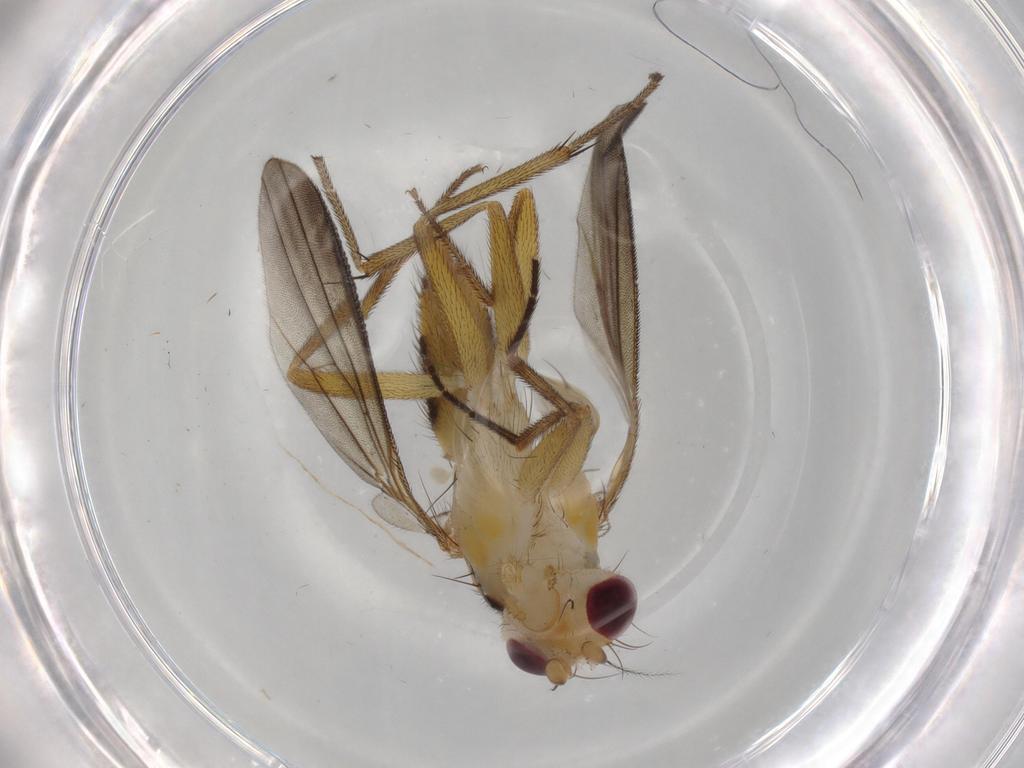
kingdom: Animalia
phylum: Arthropoda
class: Insecta
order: Diptera
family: Clusiidae
